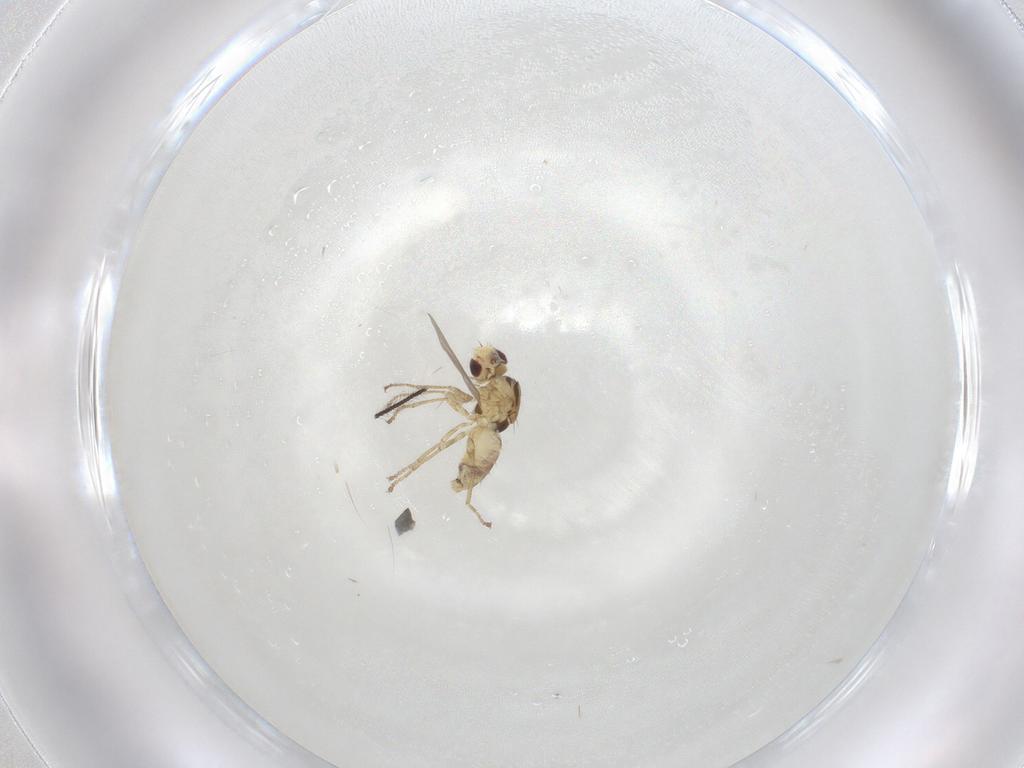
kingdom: Animalia
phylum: Arthropoda
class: Insecta
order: Diptera
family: Agromyzidae
